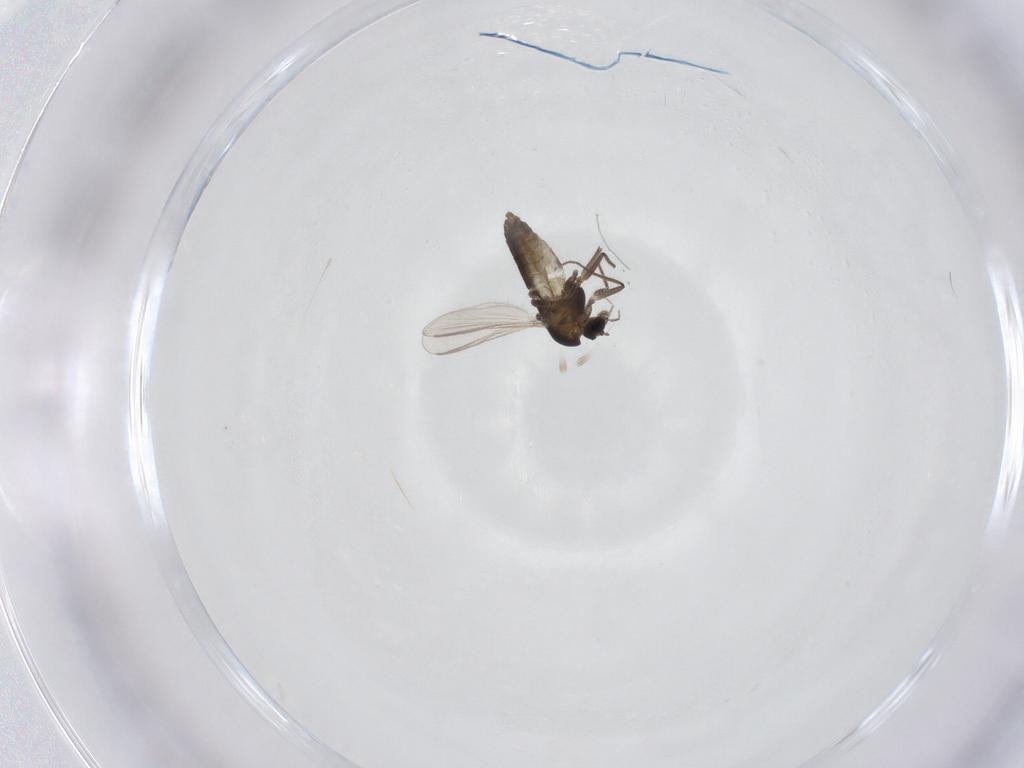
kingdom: Animalia
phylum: Arthropoda
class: Insecta
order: Diptera
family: Chironomidae
